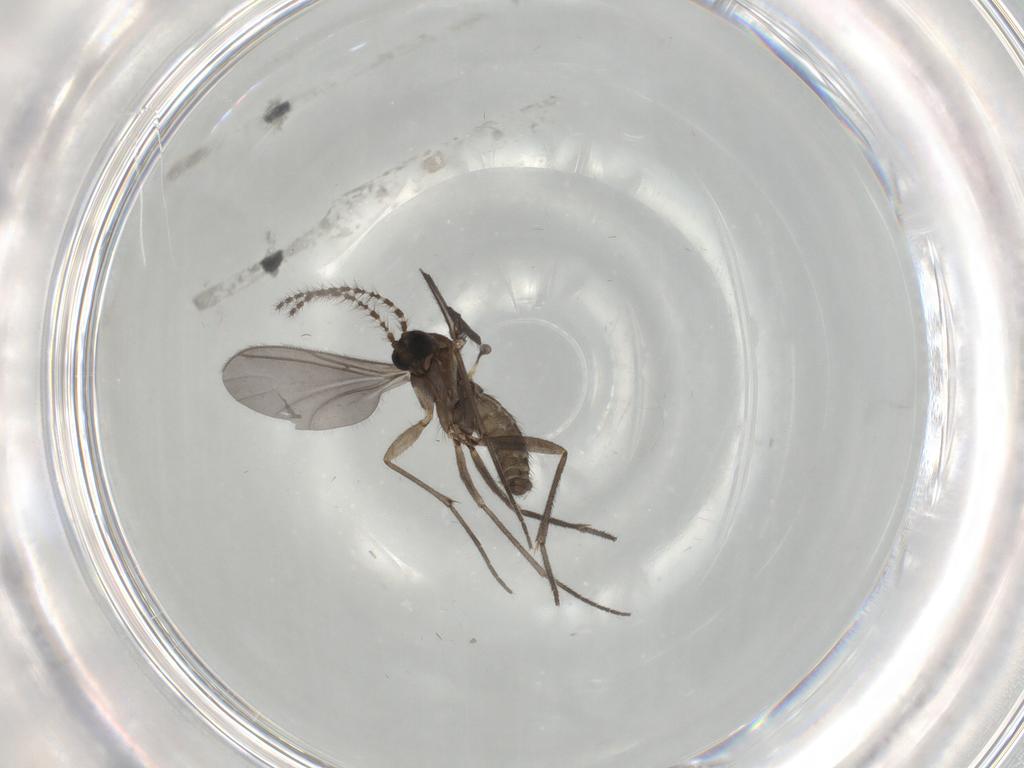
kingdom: Animalia
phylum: Arthropoda
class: Insecta
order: Diptera
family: Sciaridae
